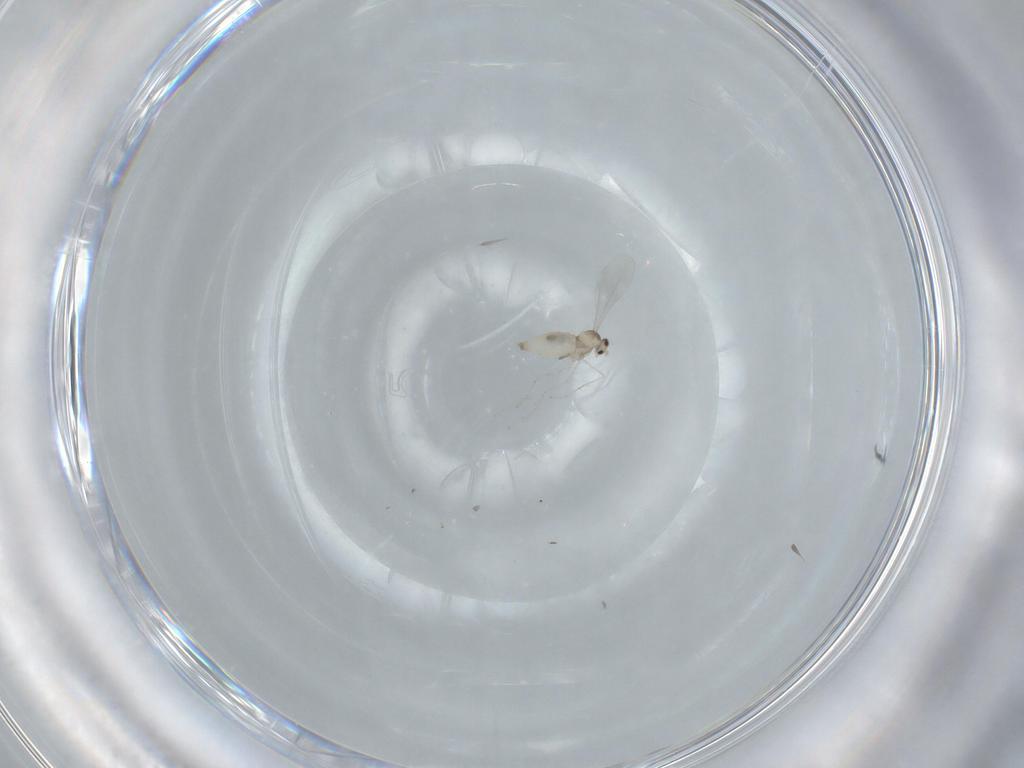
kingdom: Animalia
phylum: Arthropoda
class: Insecta
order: Diptera
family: Cecidomyiidae
